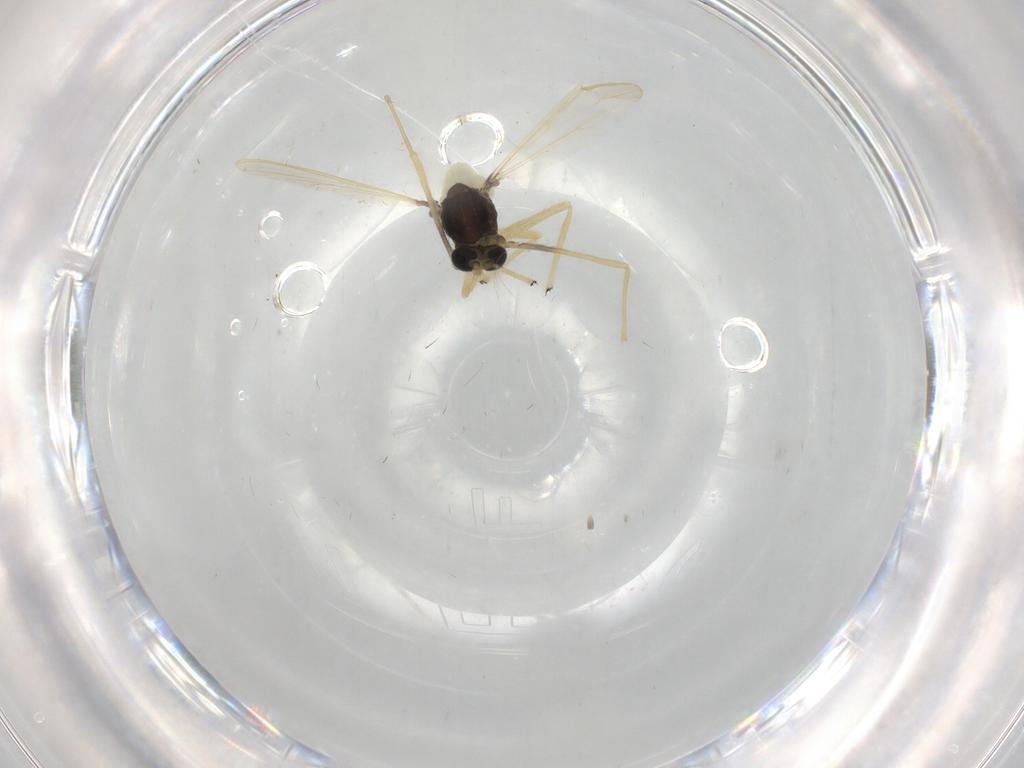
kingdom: Animalia
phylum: Arthropoda
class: Insecta
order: Diptera
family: Chironomidae
